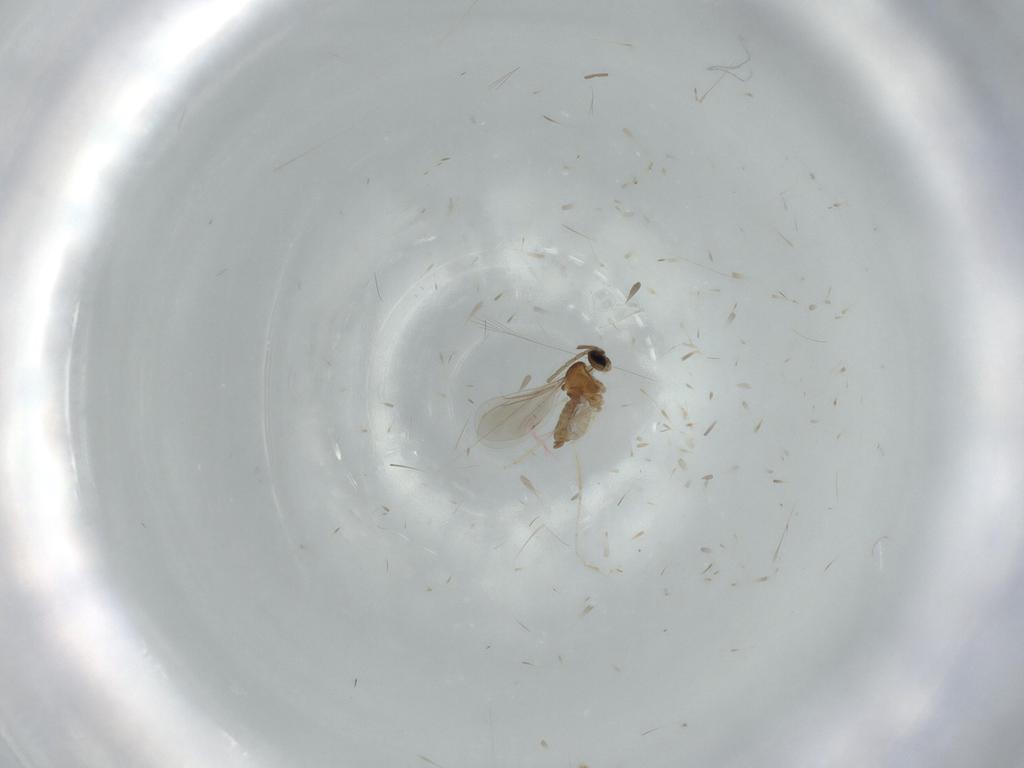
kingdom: Animalia
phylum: Arthropoda
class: Insecta
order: Diptera
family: Cecidomyiidae
